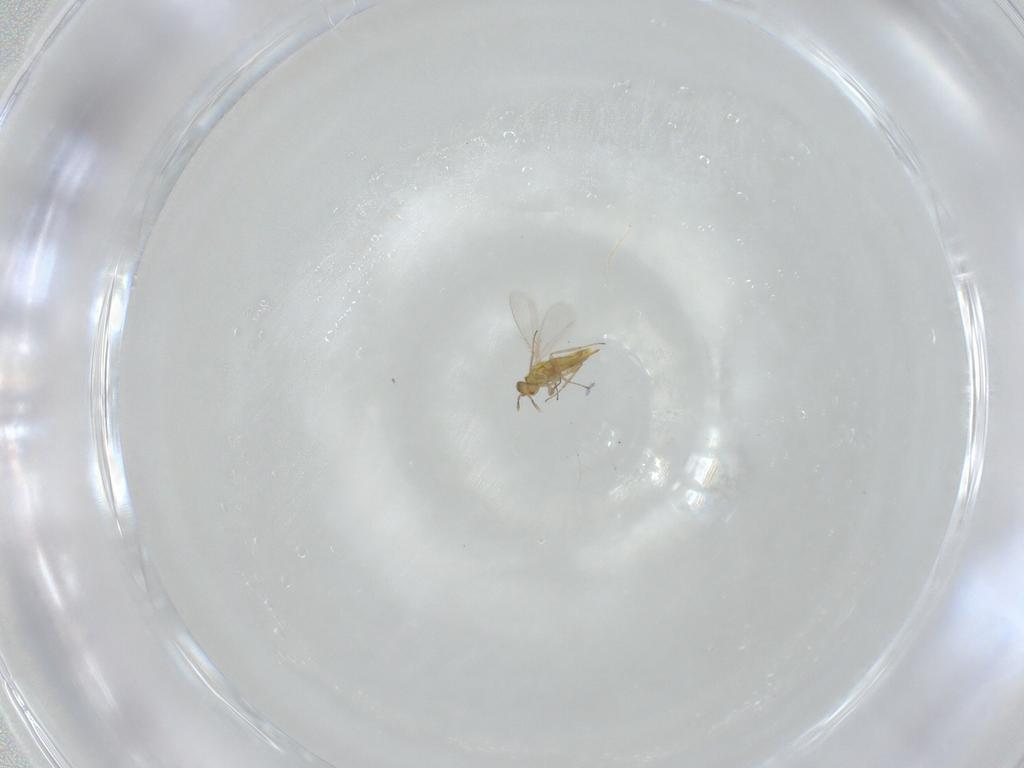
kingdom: Animalia
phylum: Arthropoda
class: Insecta
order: Hymenoptera
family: Aphelinidae
